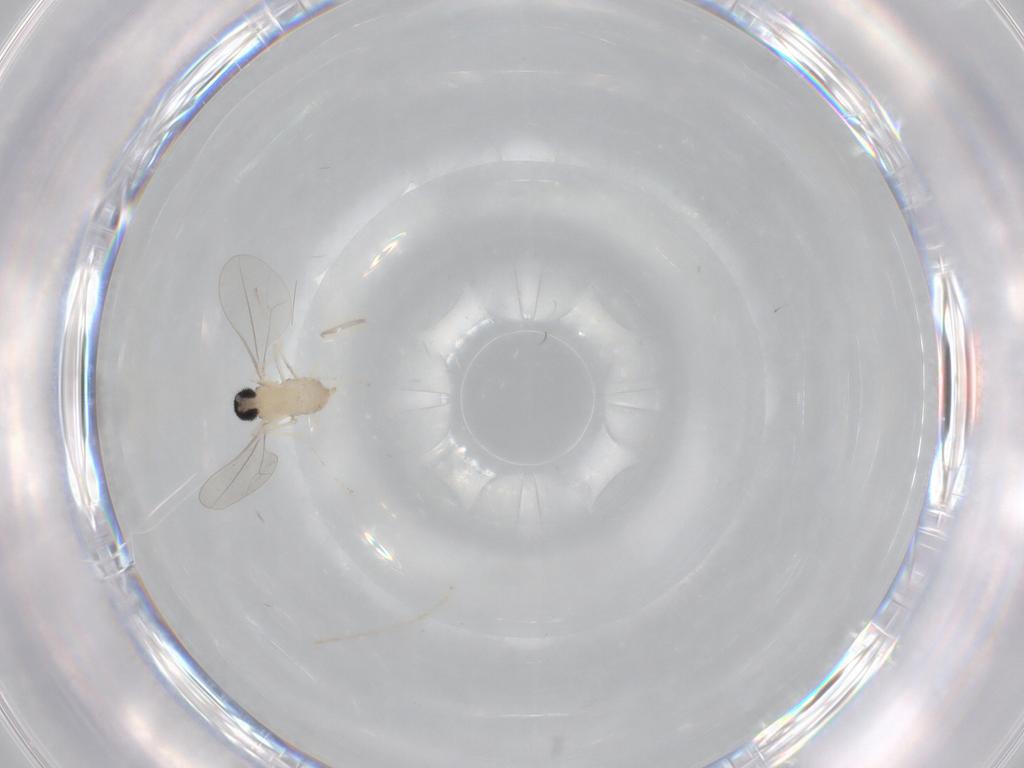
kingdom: Animalia
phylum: Arthropoda
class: Insecta
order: Diptera
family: Cecidomyiidae
